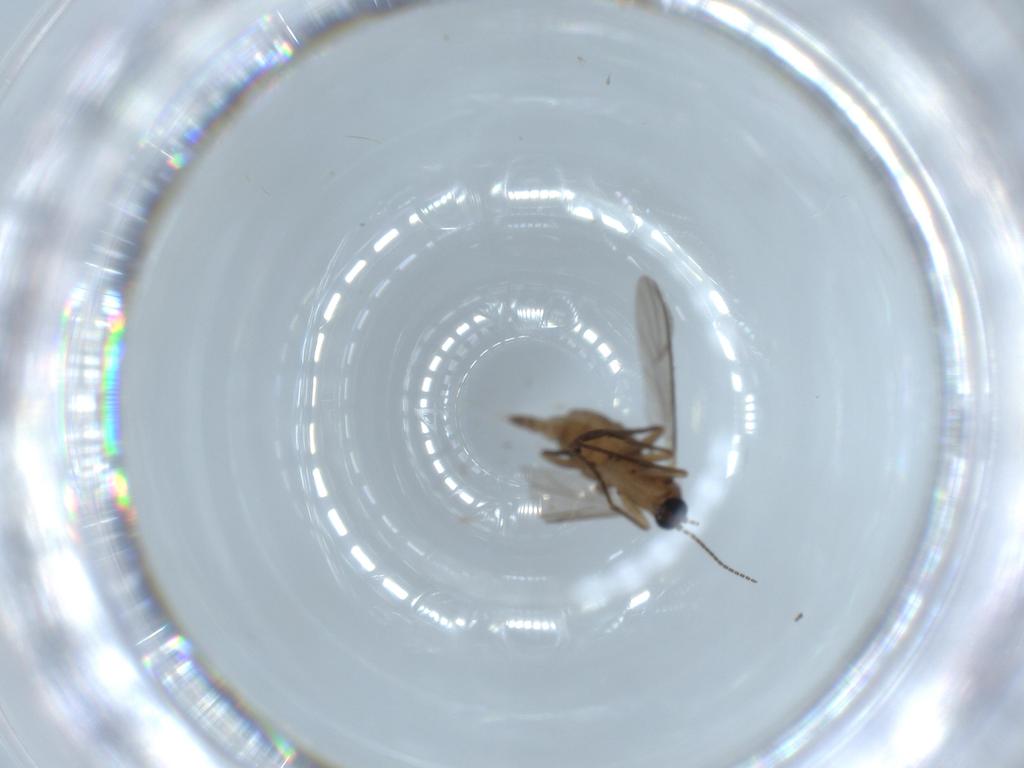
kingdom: Animalia
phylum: Arthropoda
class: Insecta
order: Diptera
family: Sciaridae
